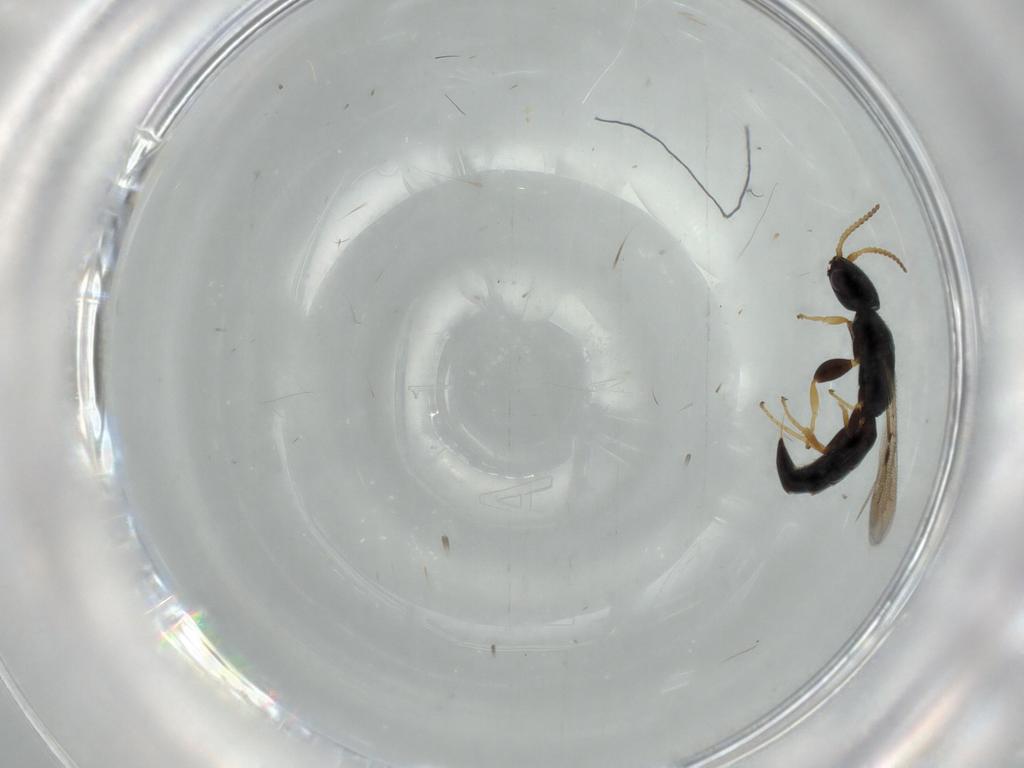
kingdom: Animalia
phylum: Arthropoda
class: Insecta
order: Hymenoptera
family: Bethylidae
